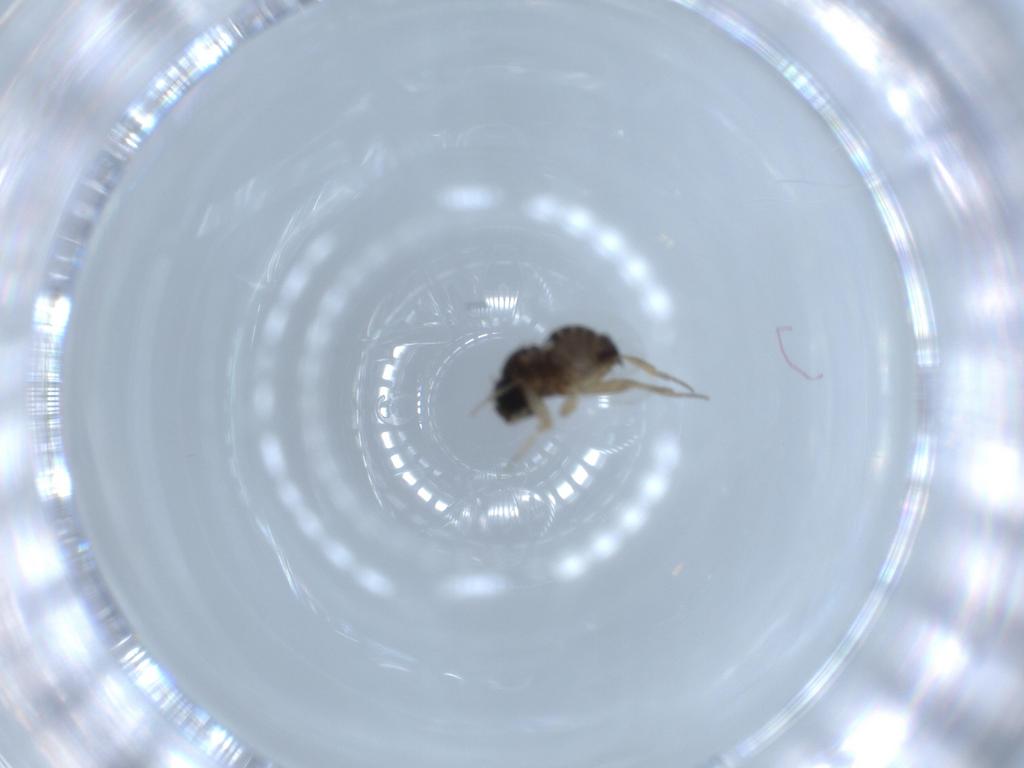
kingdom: Animalia
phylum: Arthropoda
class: Insecta
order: Diptera
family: Phoridae
